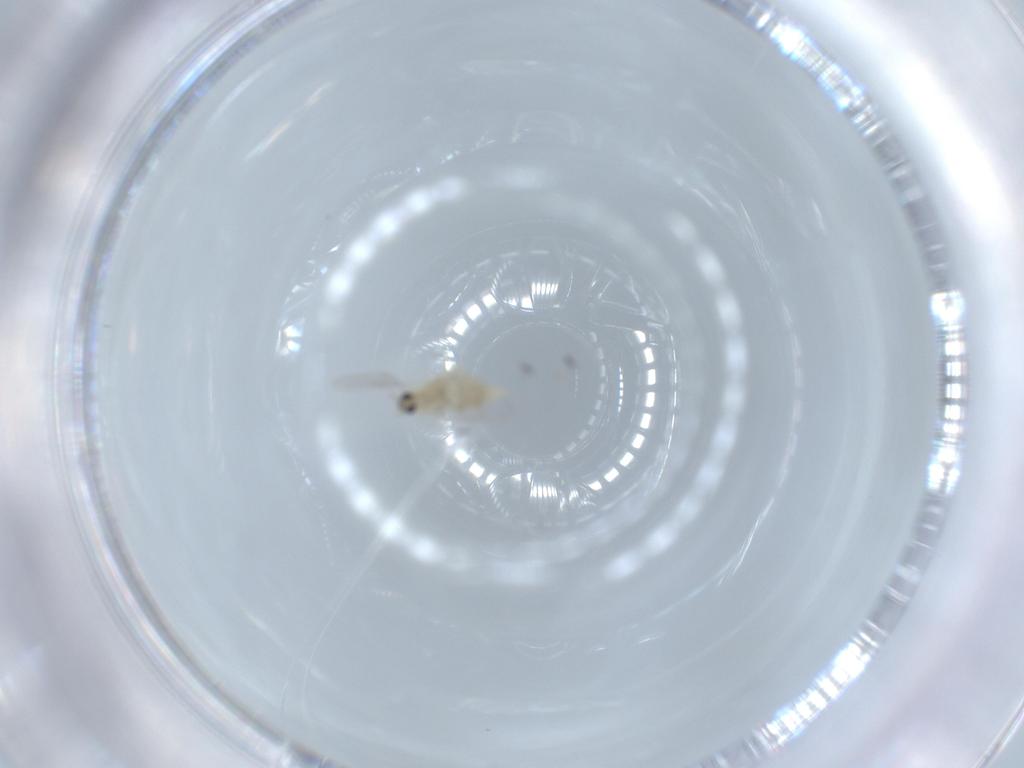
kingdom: Animalia
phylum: Arthropoda
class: Insecta
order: Diptera
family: Cecidomyiidae
